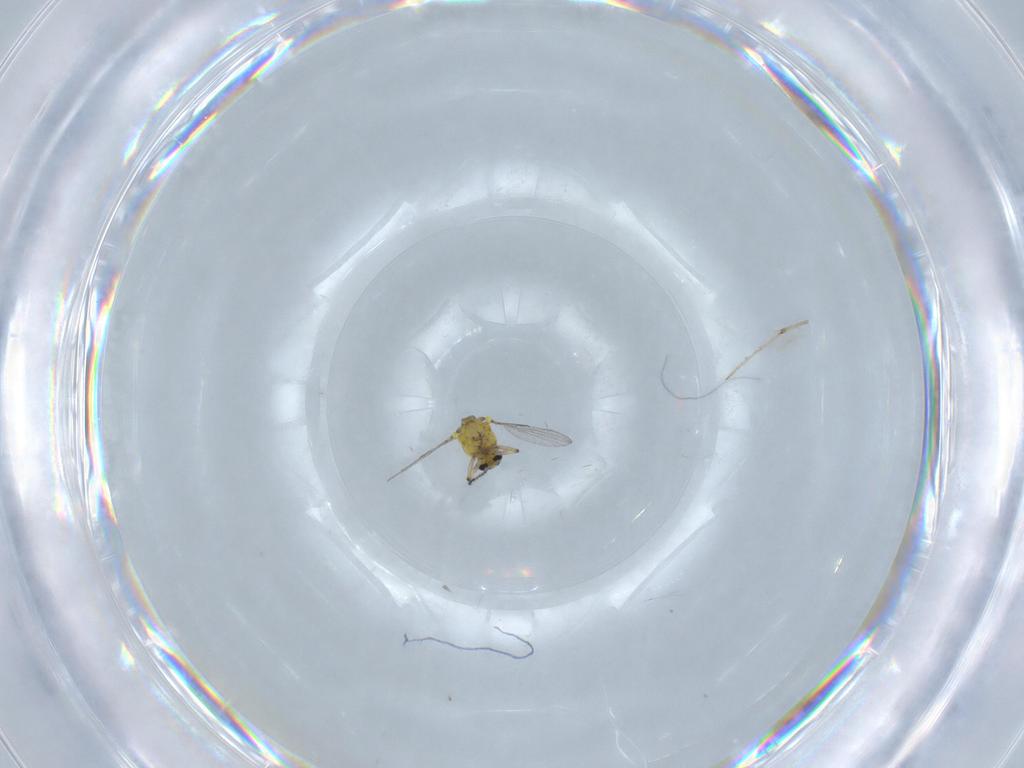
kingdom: Animalia
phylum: Arthropoda
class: Insecta
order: Diptera
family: Ceratopogonidae
